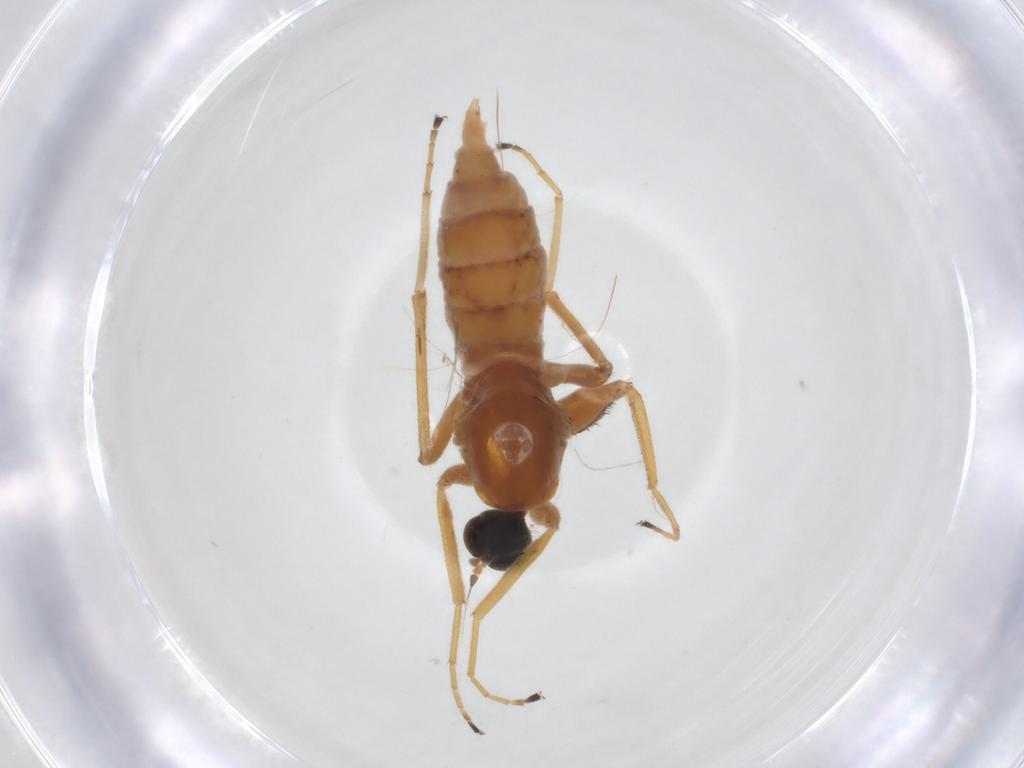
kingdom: Animalia
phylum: Arthropoda
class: Insecta
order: Diptera
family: Hybotidae
